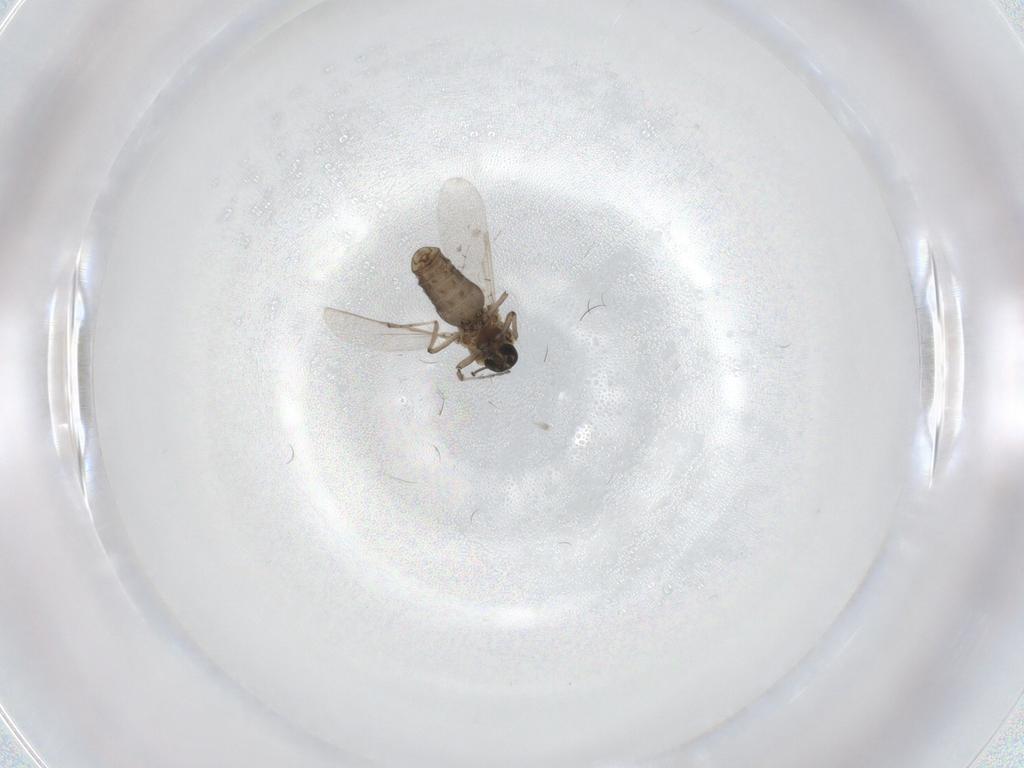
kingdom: Animalia
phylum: Arthropoda
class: Insecta
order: Diptera
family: Ceratopogonidae
